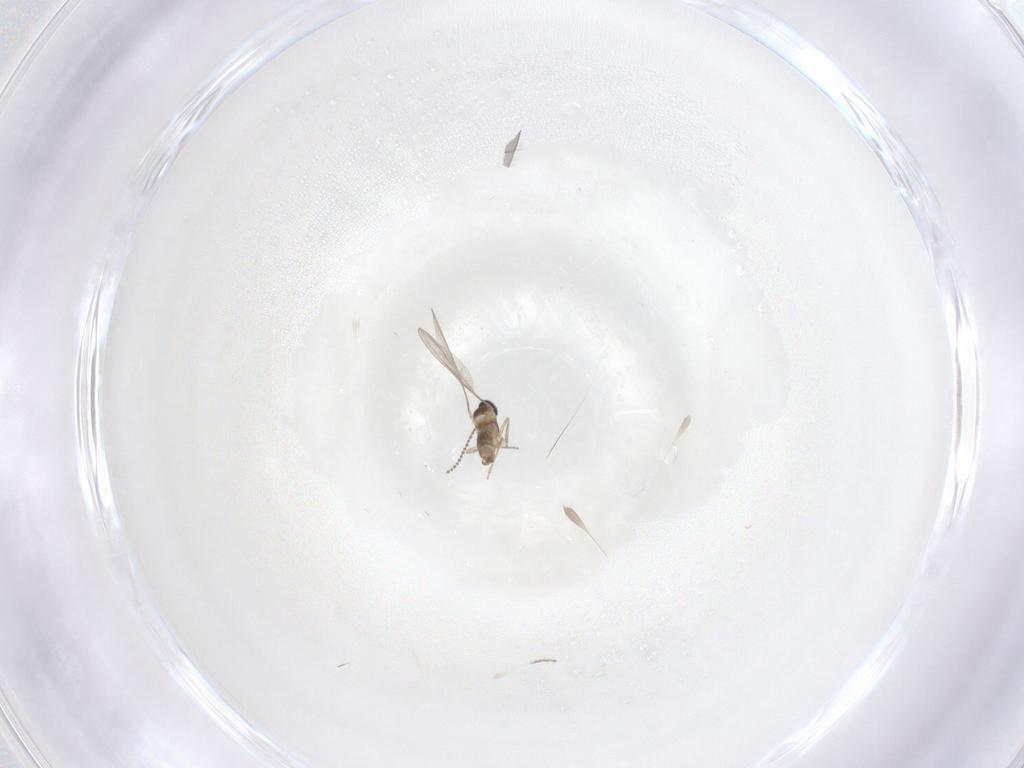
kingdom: Animalia
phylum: Arthropoda
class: Insecta
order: Diptera
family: Cecidomyiidae
